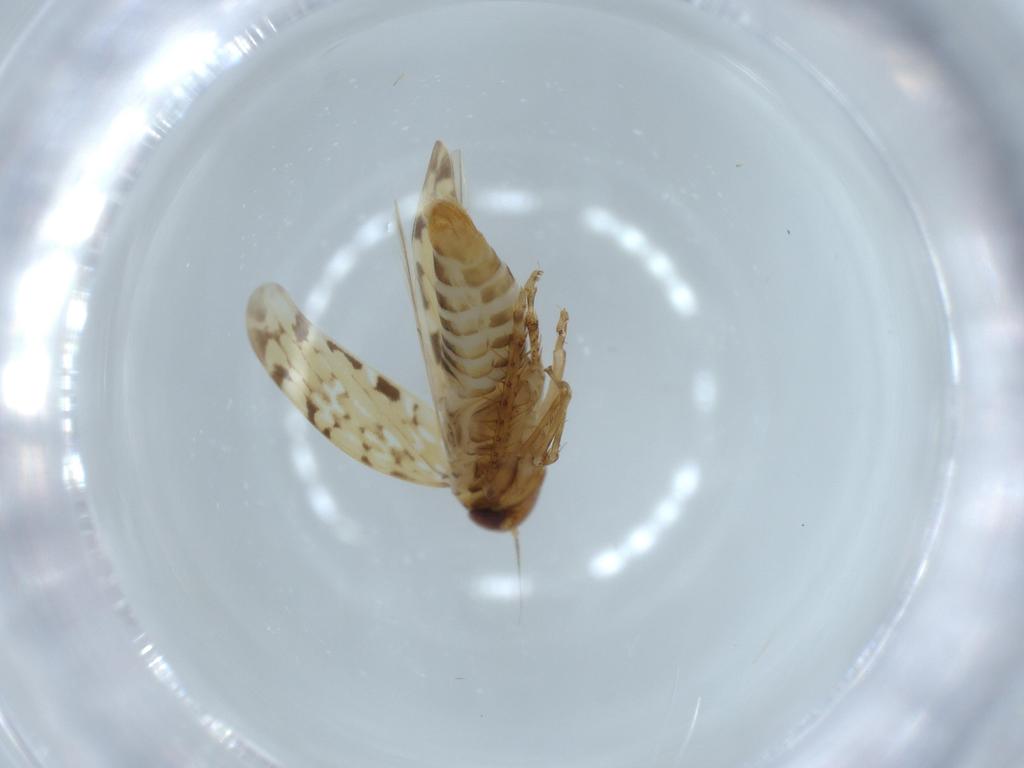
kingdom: Animalia
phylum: Arthropoda
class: Insecta
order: Hemiptera
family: Cicadellidae
